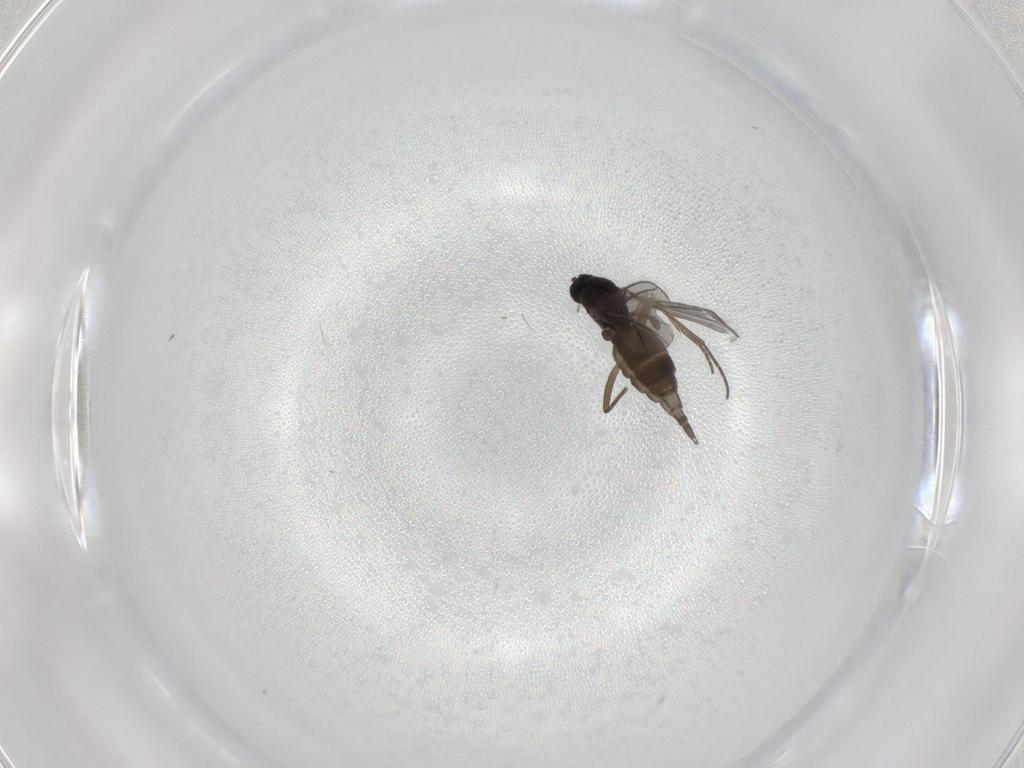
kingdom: Animalia
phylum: Arthropoda
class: Insecta
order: Diptera
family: Sciaridae
